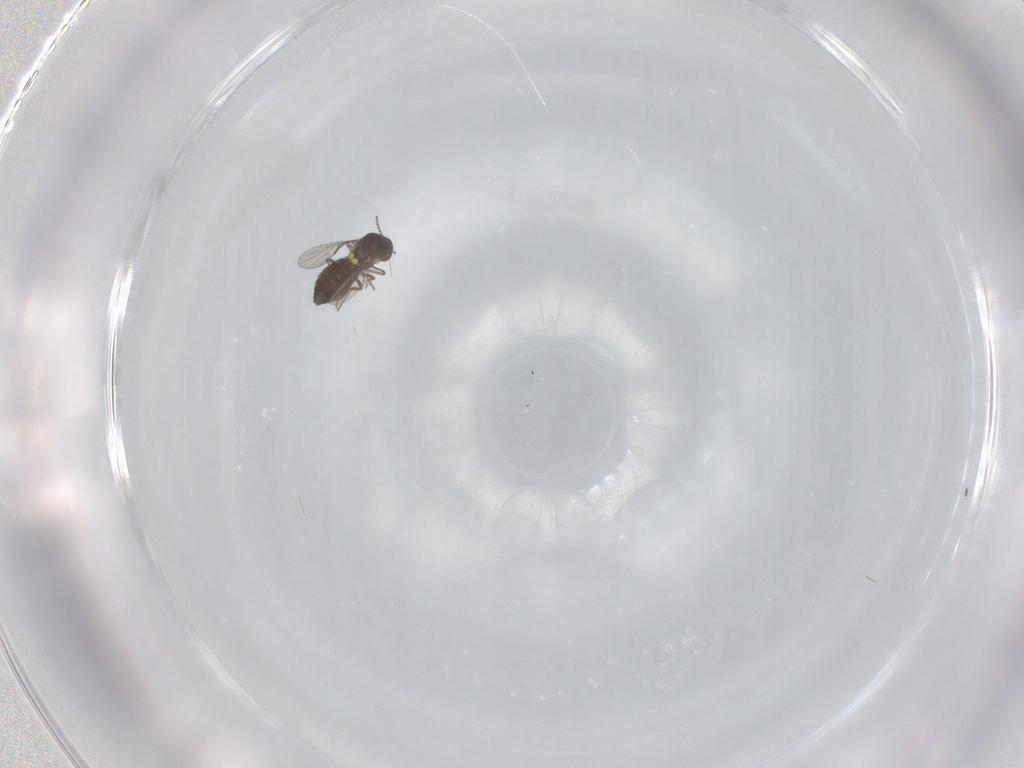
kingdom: Animalia
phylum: Arthropoda
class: Insecta
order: Diptera
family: Ceratopogonidae
